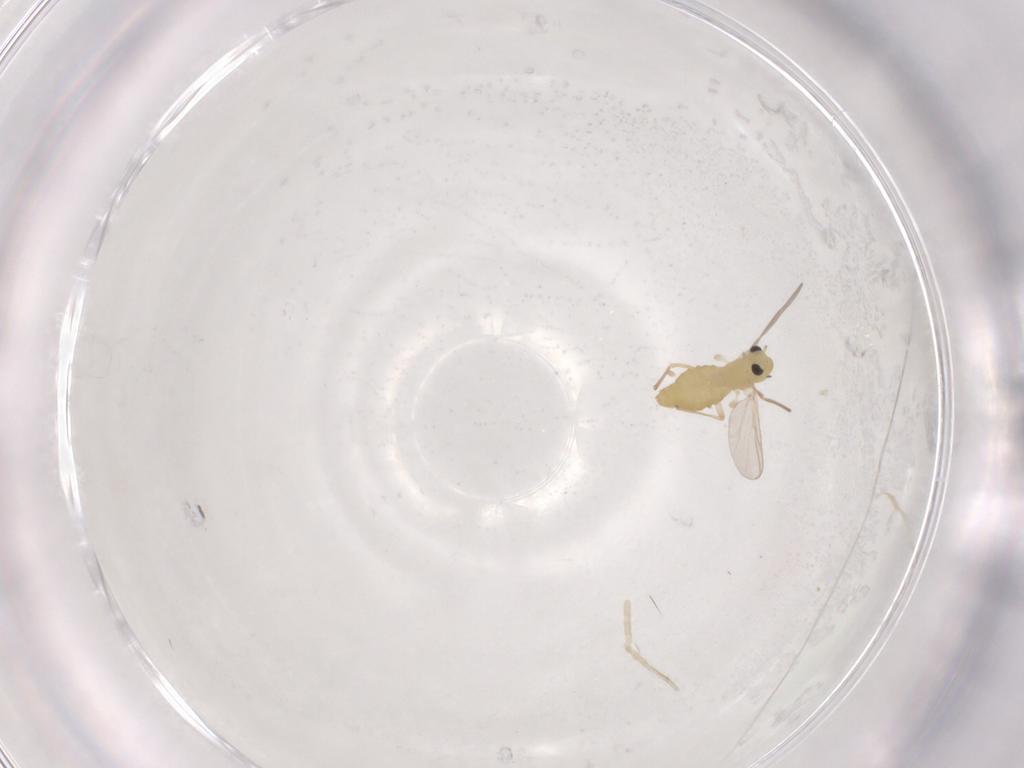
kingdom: Animalia
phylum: Arthropoda
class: Insecta
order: Diptera
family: Chironomidae
